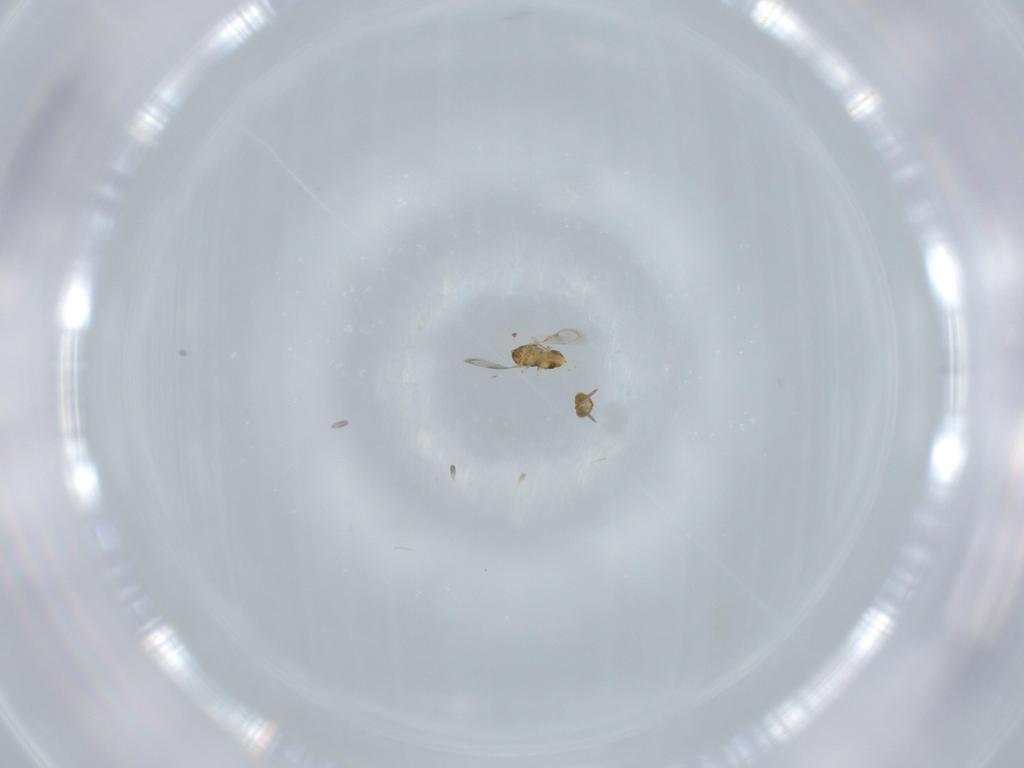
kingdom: Animalia
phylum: Arthropoda
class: Insecta
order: Hymenoptera
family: Aphelinidae
